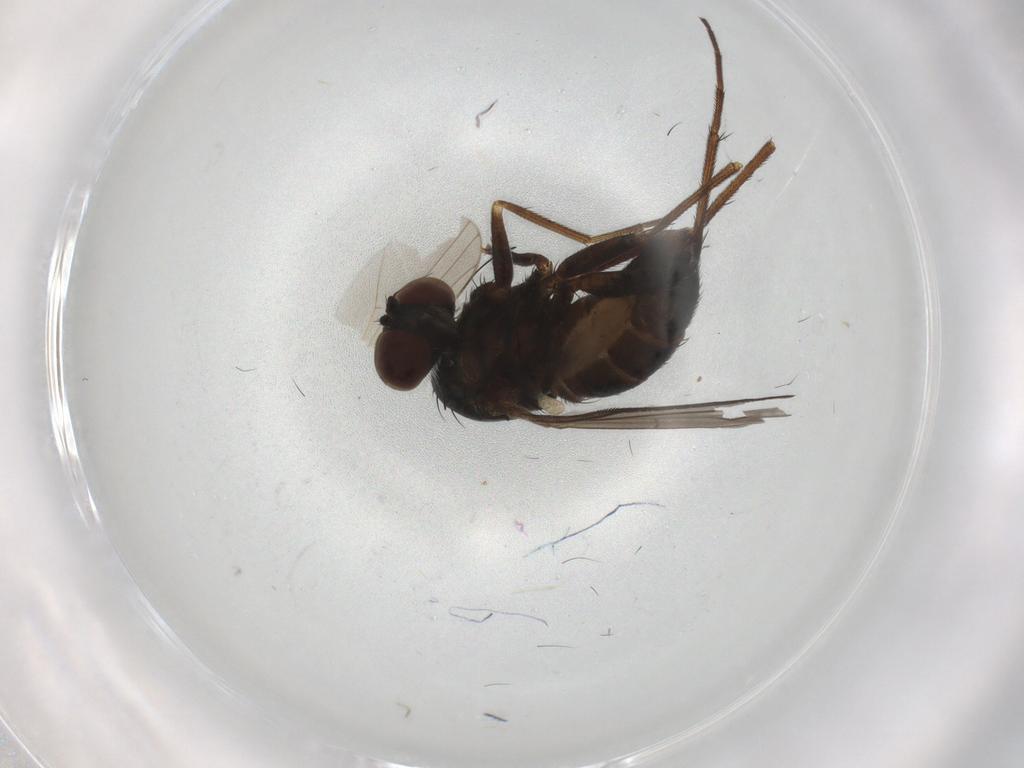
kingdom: Animalia
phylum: Arthropoda
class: Insecta
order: Diptera
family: Dolichopodidae
